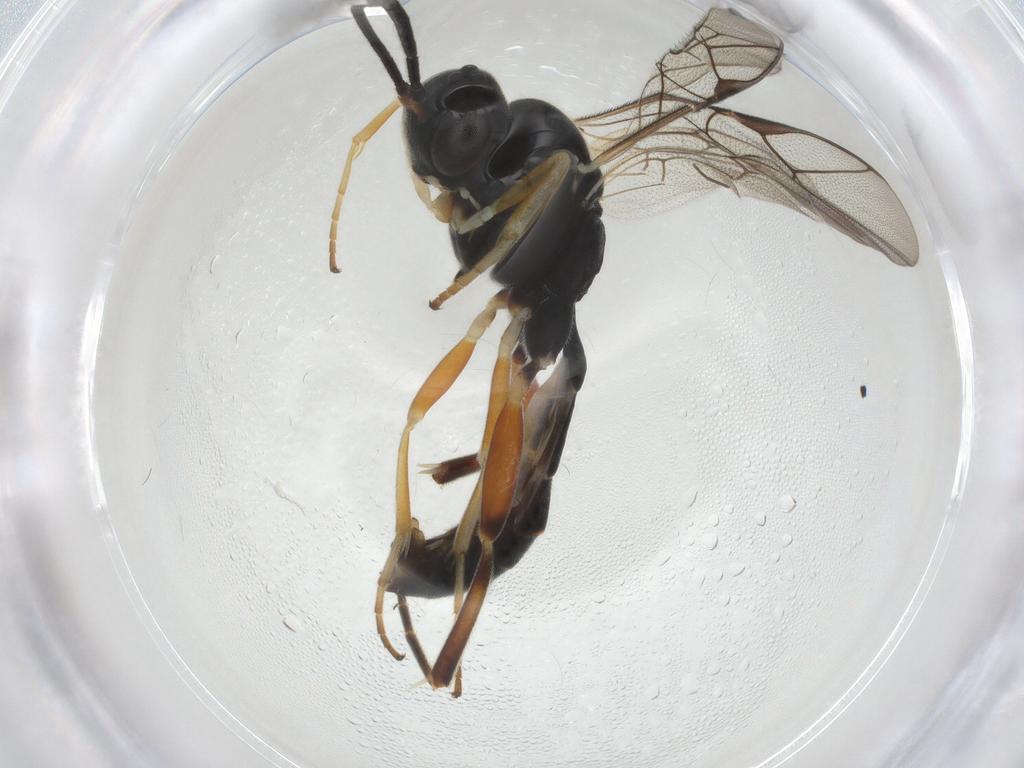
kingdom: Animalia
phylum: Arthropoda
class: Insecta
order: Hymenoptera
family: Ichneumonidae
